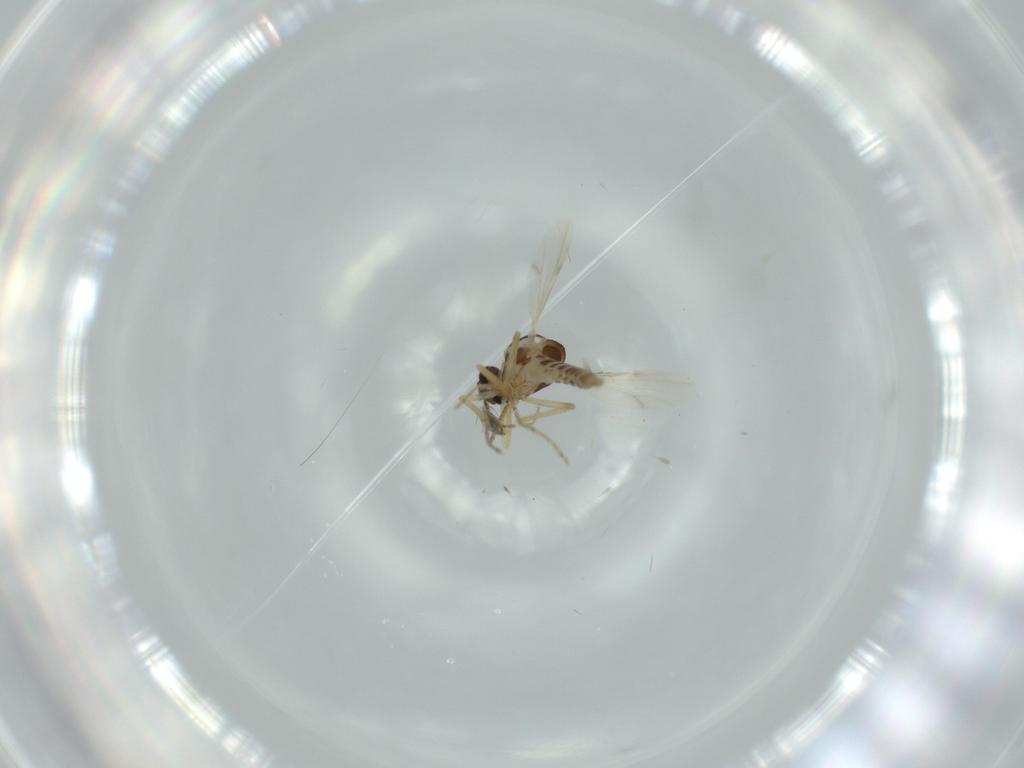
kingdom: Animalia
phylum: Arthropoda
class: Insecta
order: Diptera
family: Ceratopogonidae
